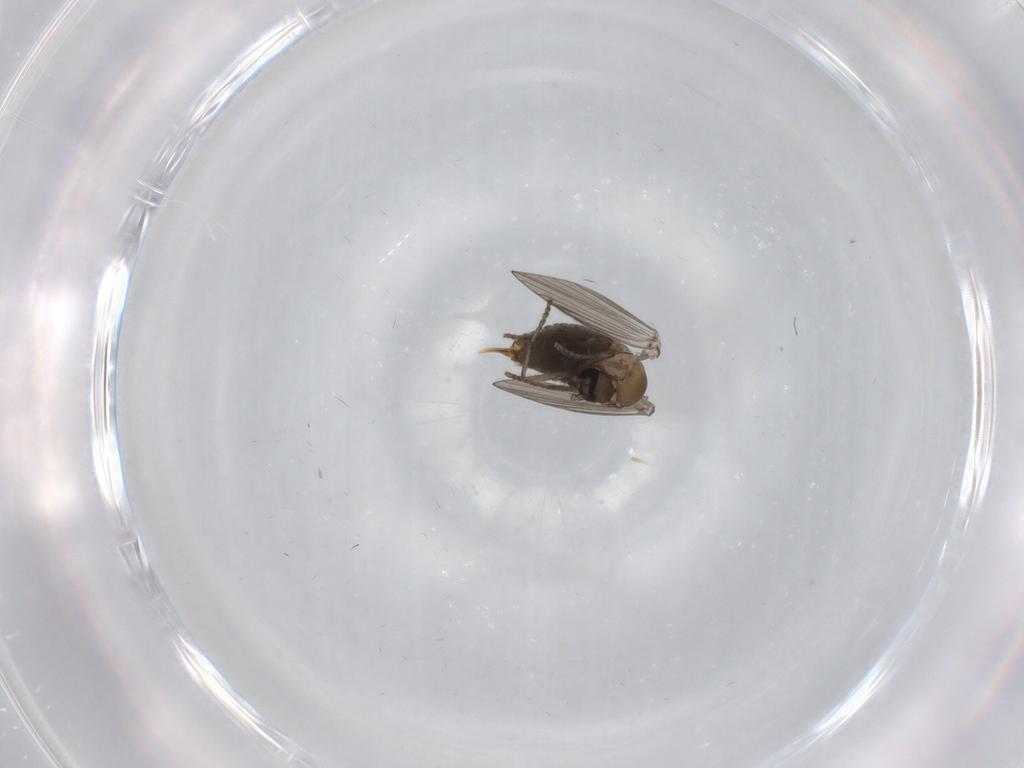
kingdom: Animalia
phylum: Arthropoda
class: Insecta
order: Diptera
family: Psychodidae
